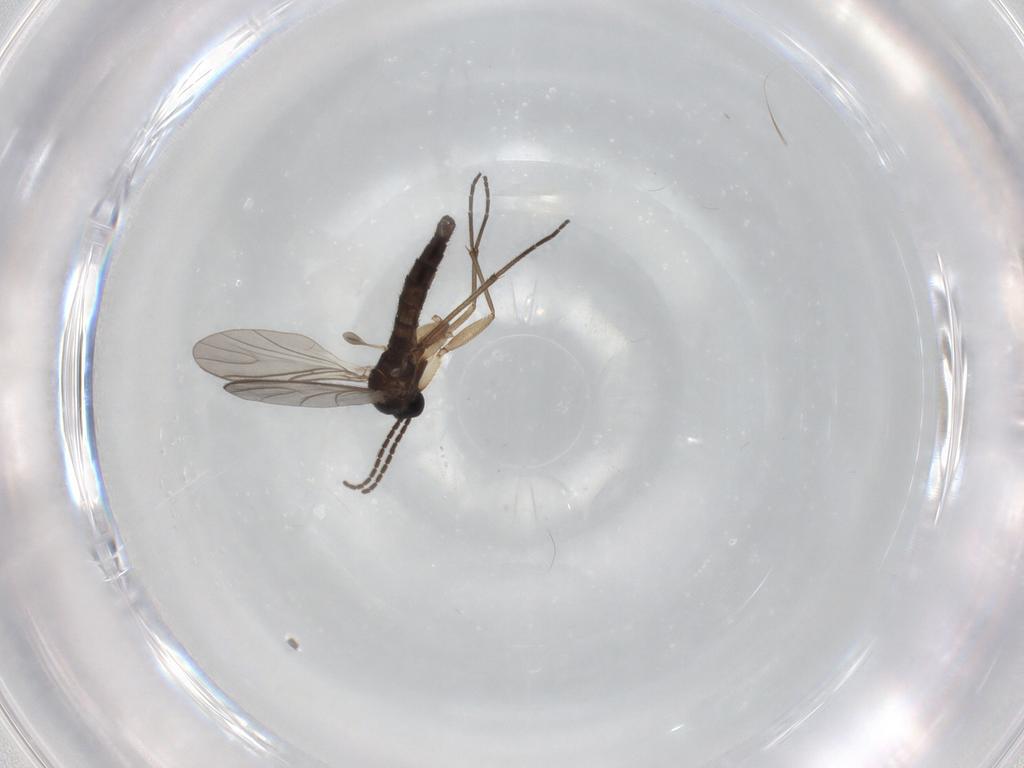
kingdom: Animalia
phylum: Arthropoda
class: Insecta
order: Diptera
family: Sciaridae
